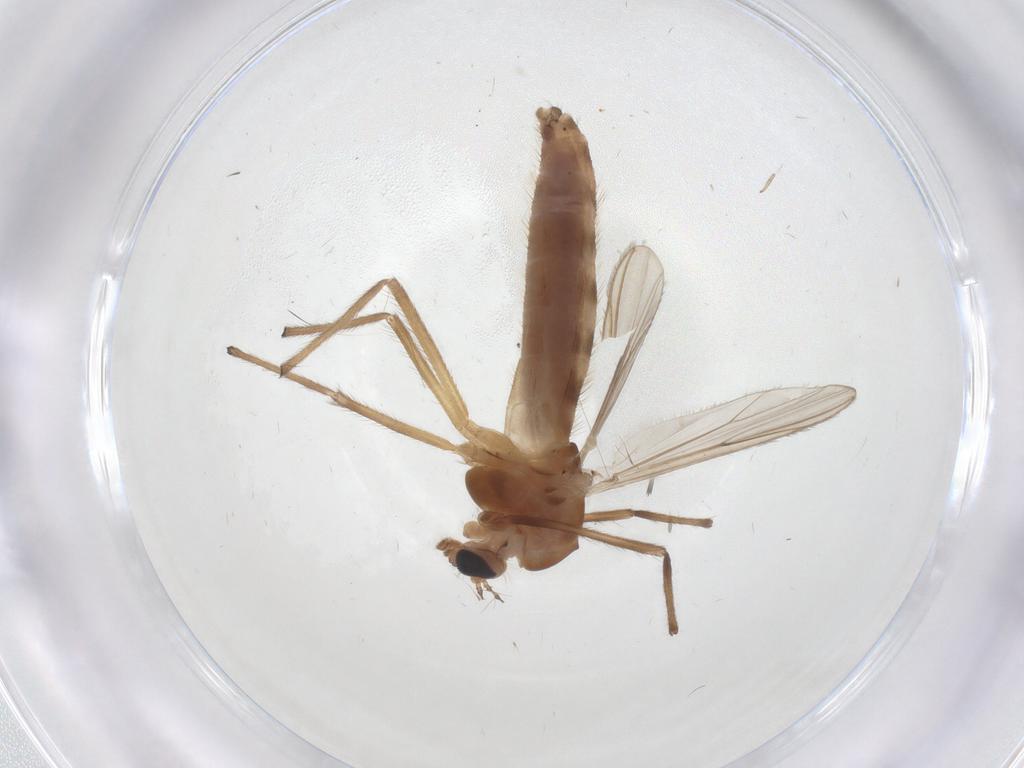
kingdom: Animalia
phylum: Arthropoda
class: Insecta
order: Diptera
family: Chironomidae
